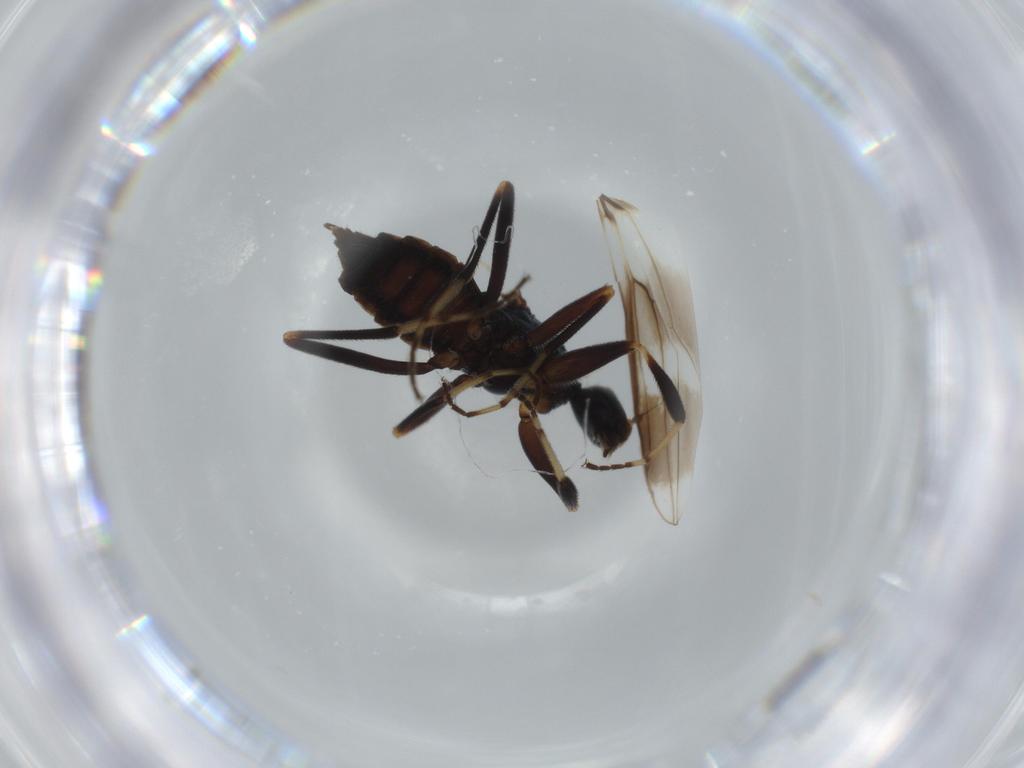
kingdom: Animalia
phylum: Arthropoda
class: Insecta
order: Diptera
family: Hybotidae
